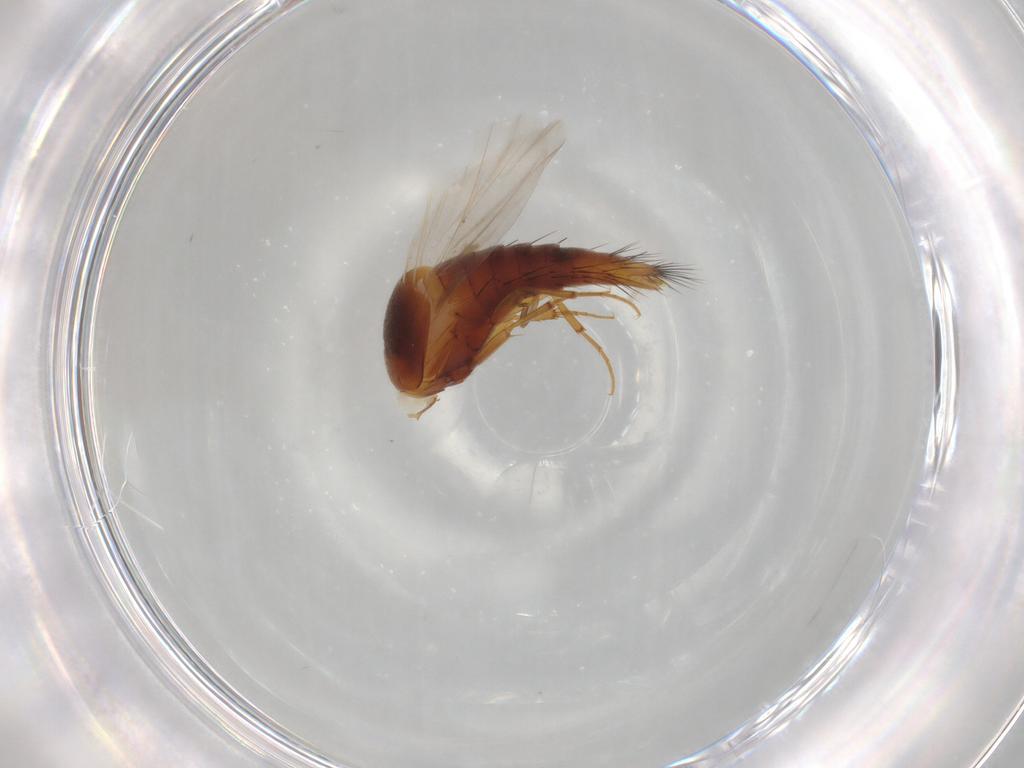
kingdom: Animalia
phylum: Arthropoda
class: Insecta
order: Coleoptera
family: Staphylinidae
